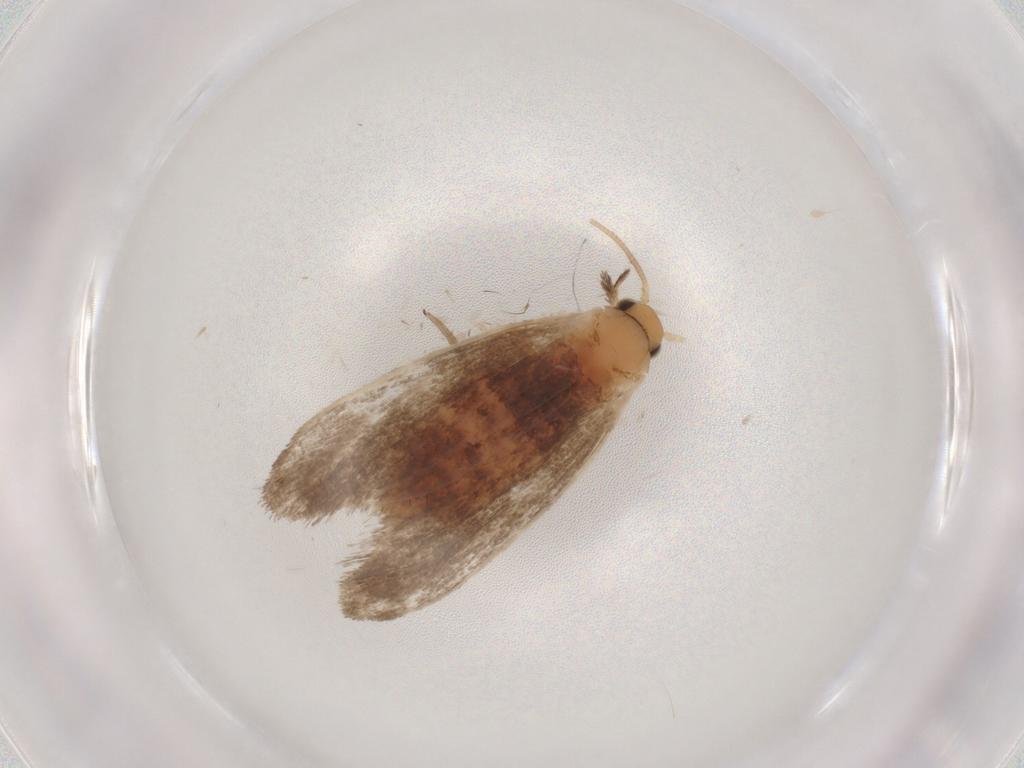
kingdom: Animalia
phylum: Arthropoda
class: Insecta
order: Lepidoptera
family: Dryadaulidae
